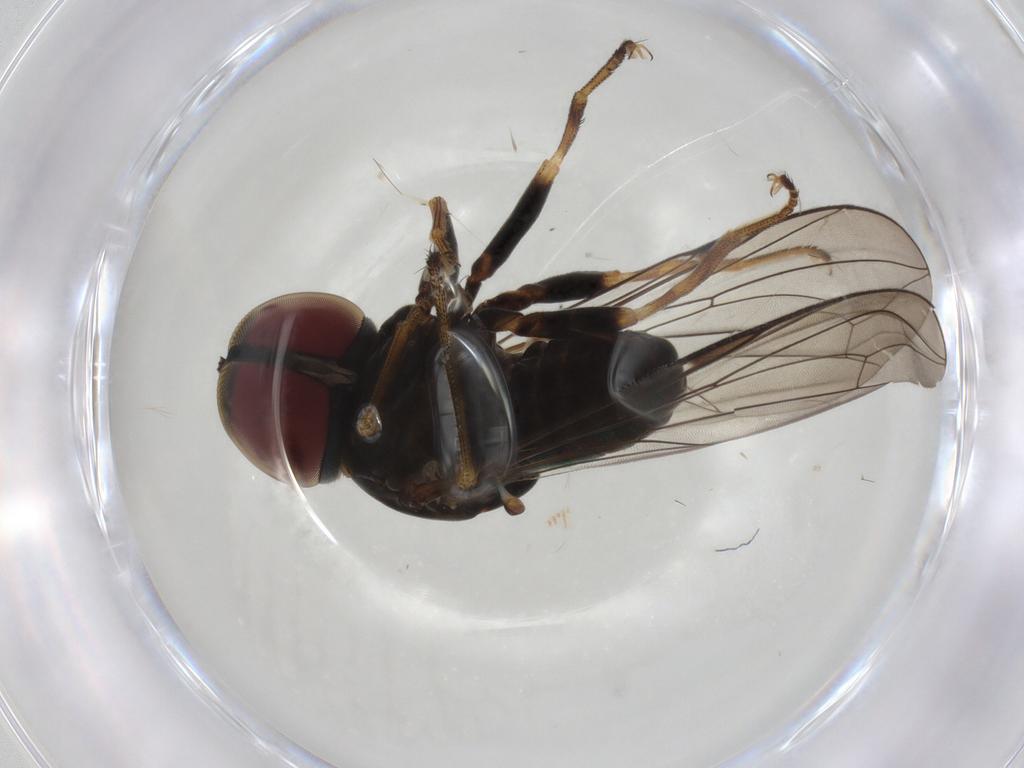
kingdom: Animalia
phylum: Arthropoda
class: Insecta
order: Diptera
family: Pipunculidae
